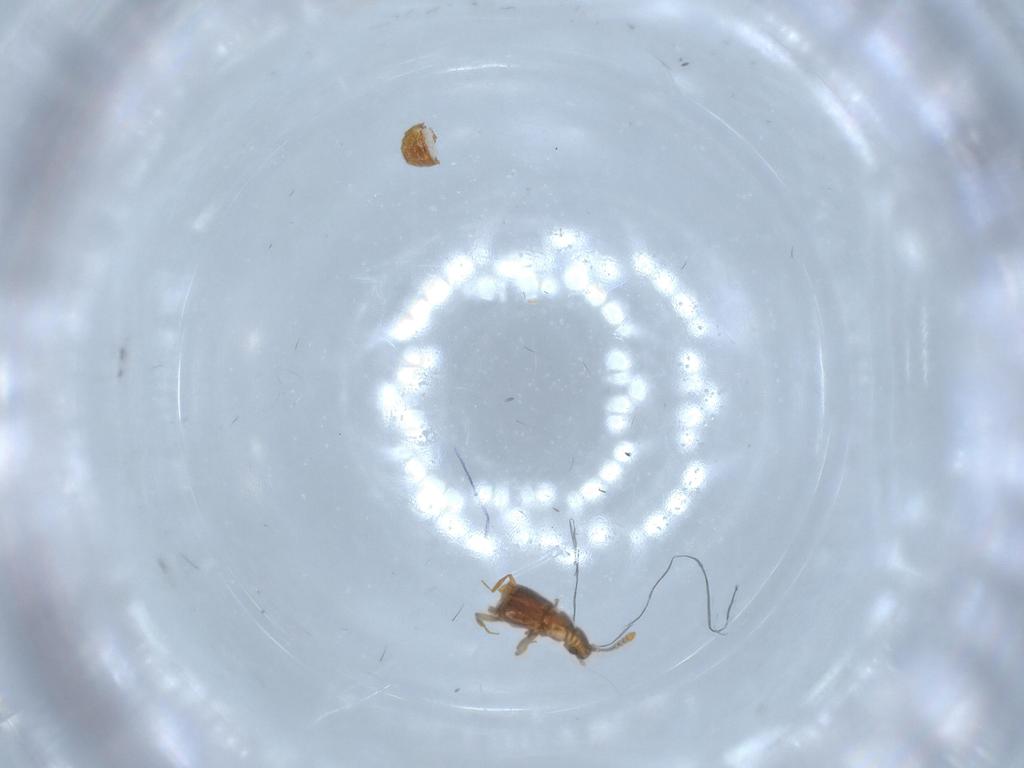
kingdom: Animalia
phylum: Arthropoda
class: Insecta
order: Coleoptera
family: Staphylinidae
